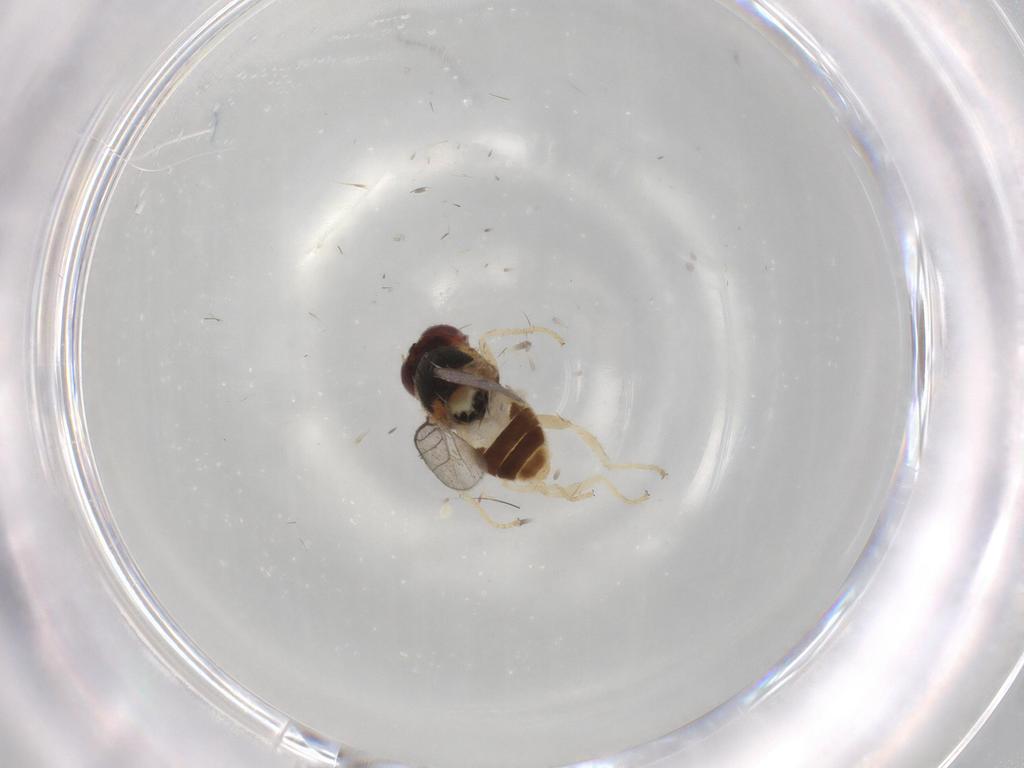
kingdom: Animalia
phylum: Arthropoda
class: Insecta
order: Diptera
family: Chloropidae
